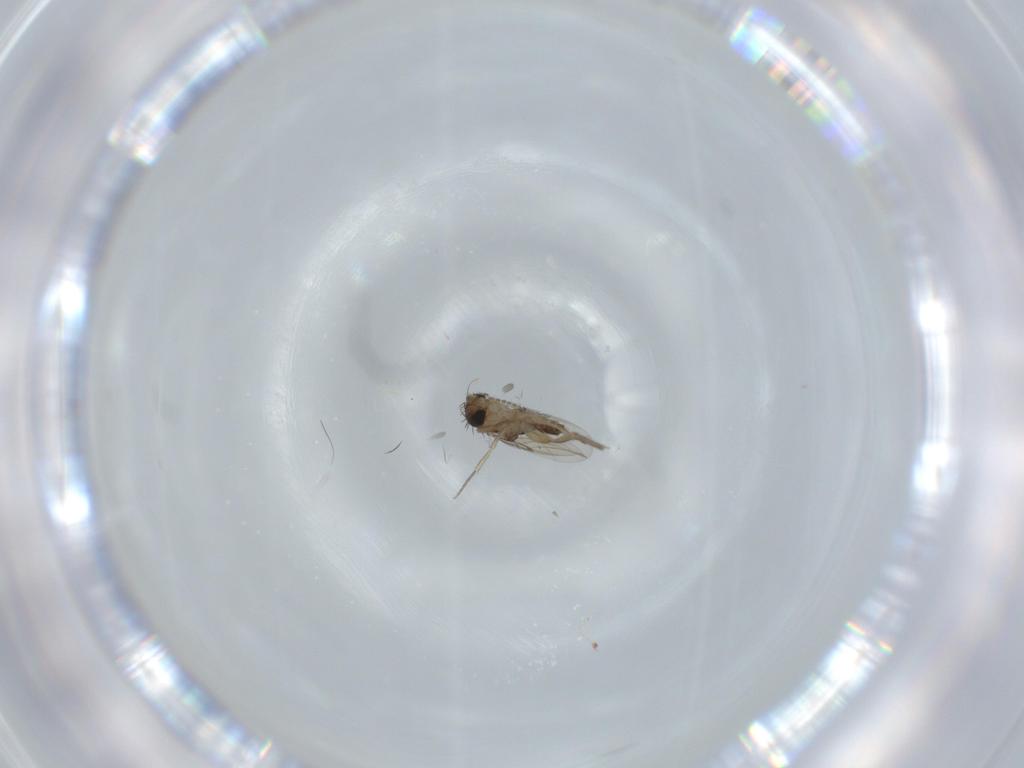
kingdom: Animalia
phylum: Arthropoda
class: Insecta
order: Diptera
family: Phoridae
